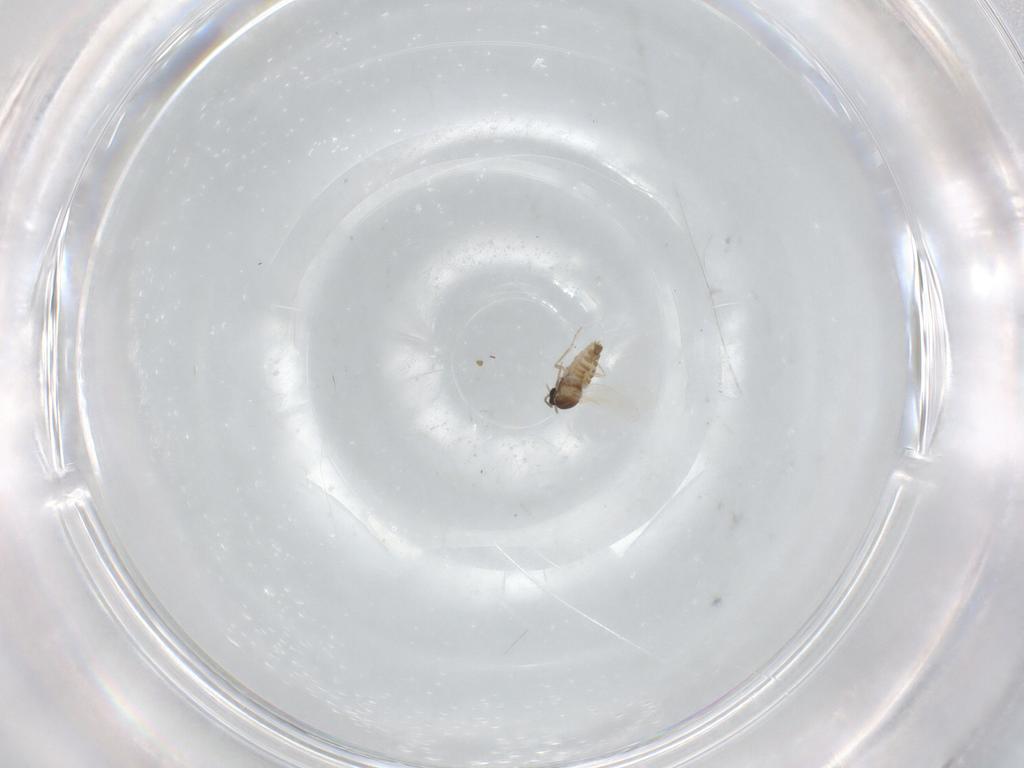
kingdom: Animalia
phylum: Arthropoda
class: Insecta
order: Diptera
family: Cecidomyiidae
